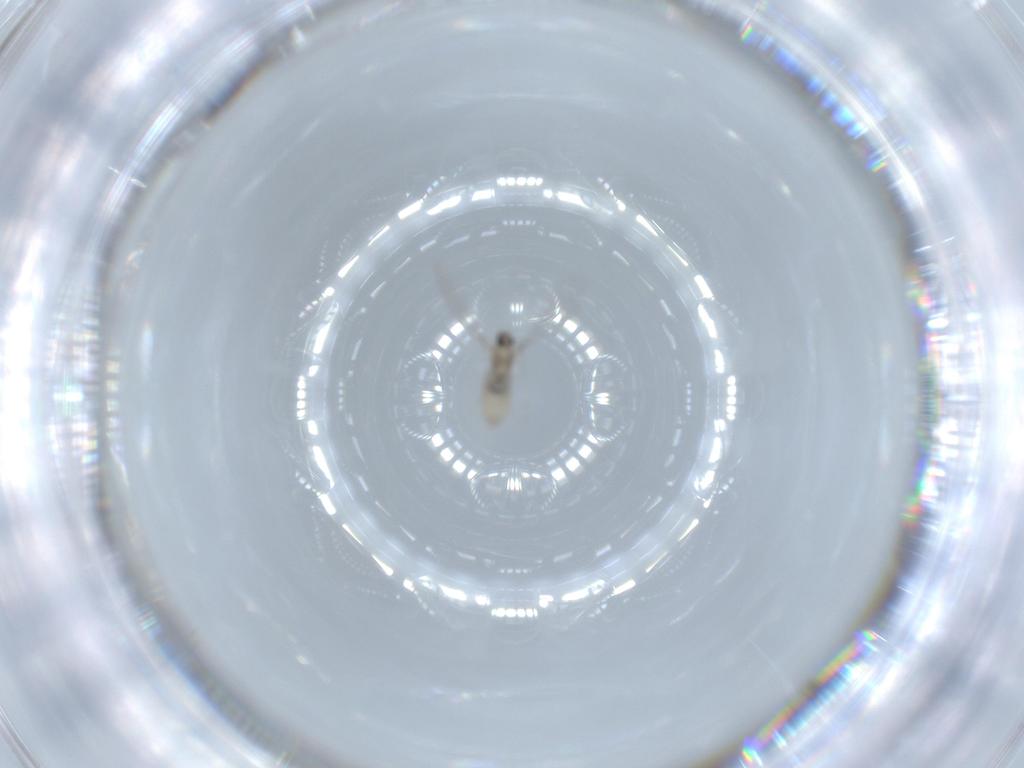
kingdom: Animalia
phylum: Arthropoda
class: Insecta
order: Diptera
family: Cecidomyiidae
